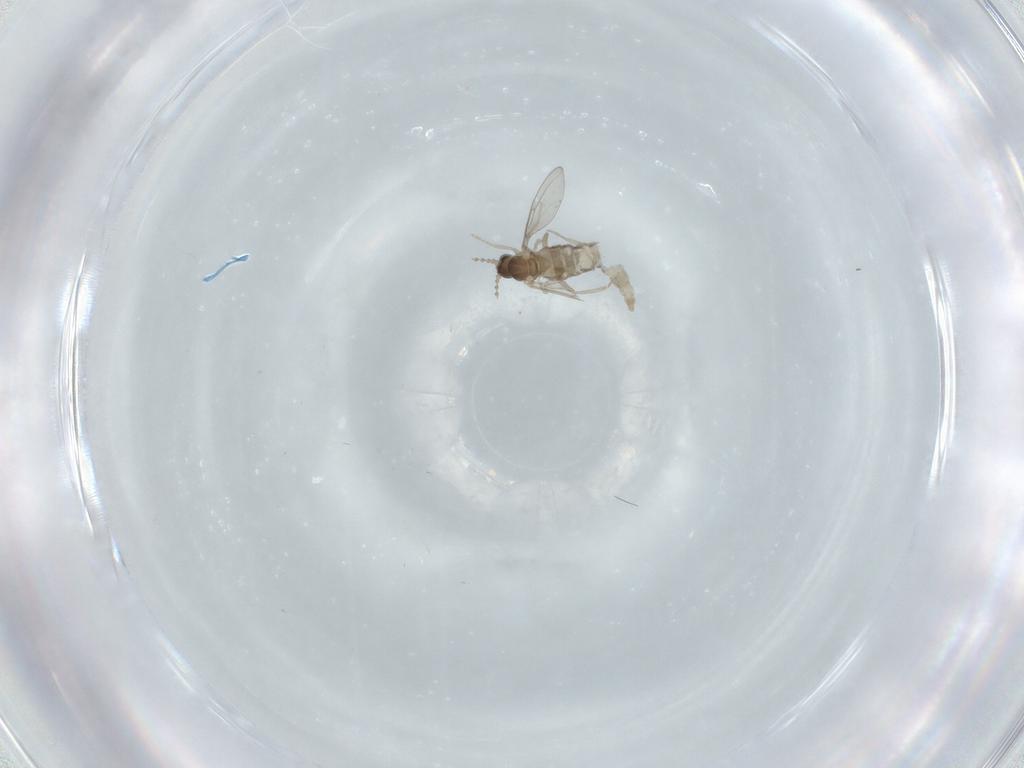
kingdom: Animalia
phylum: Arthropoda
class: Insecta
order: Diptera
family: Cecidomyiidae
